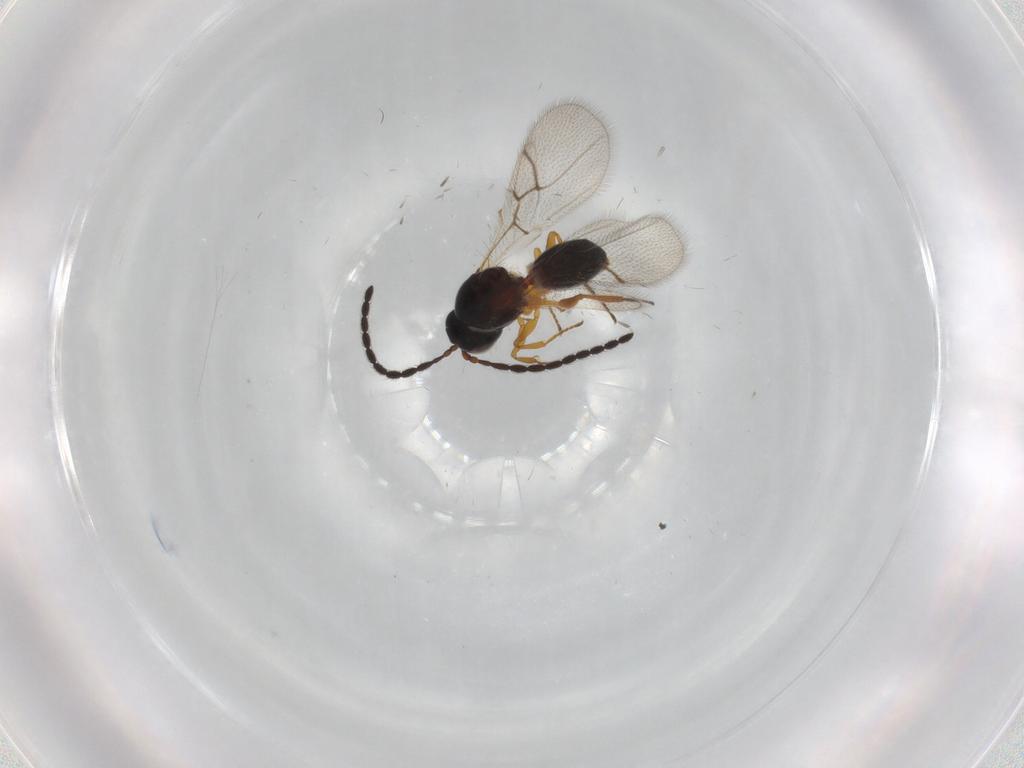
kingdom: Animalia
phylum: Arthropoda
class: Insecta
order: Hymenoptera
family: Figitidae
